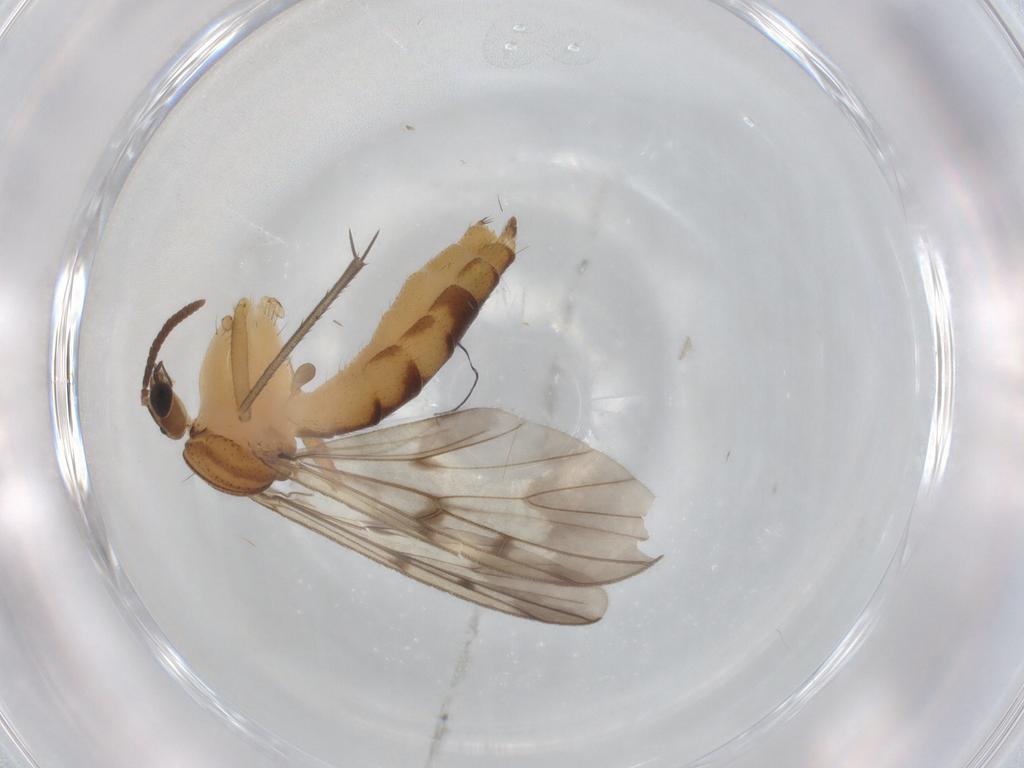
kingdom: Animalia
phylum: Arthropoda
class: Insecta
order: Diptera
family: Mycetophilidae
